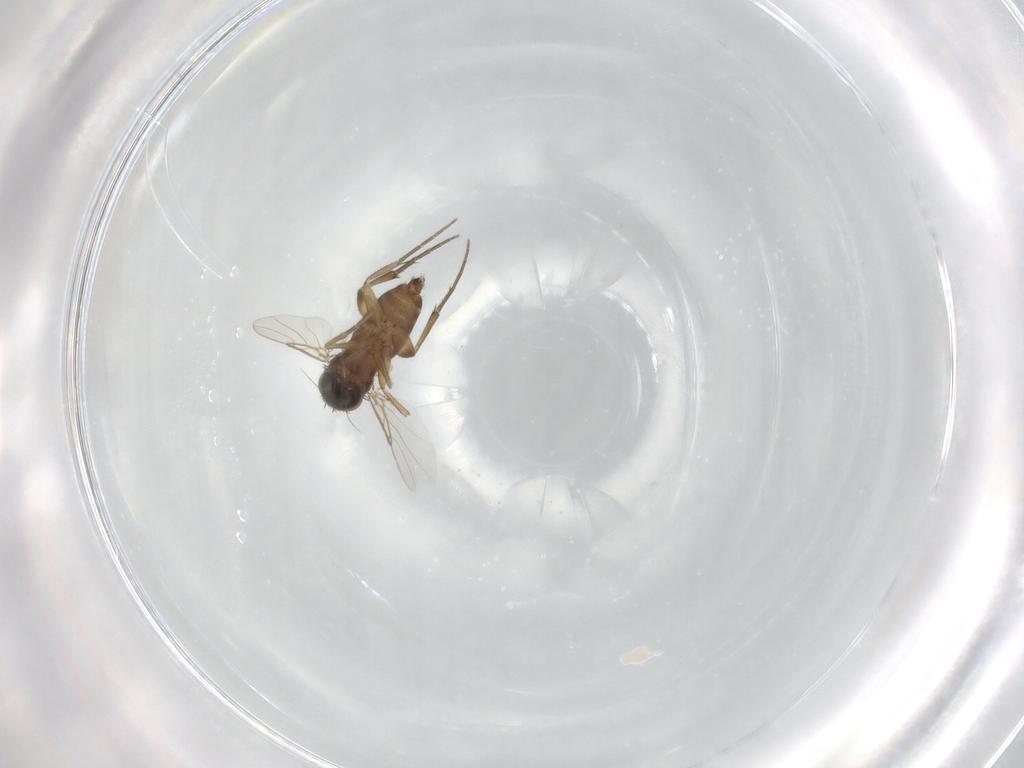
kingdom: Animalia
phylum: Arthropoda
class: Insecta
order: Diptera
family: Phoridae
